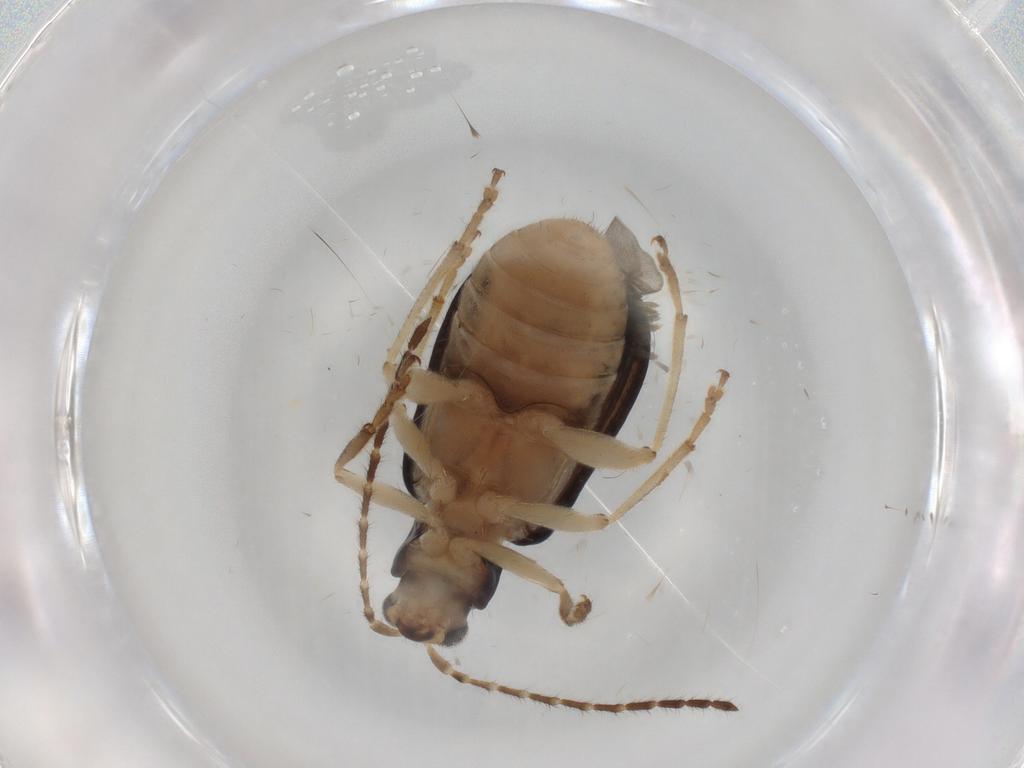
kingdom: Animalia
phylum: Arthropoda
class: Insecta
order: Coleoptera
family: Chrysomelidae
